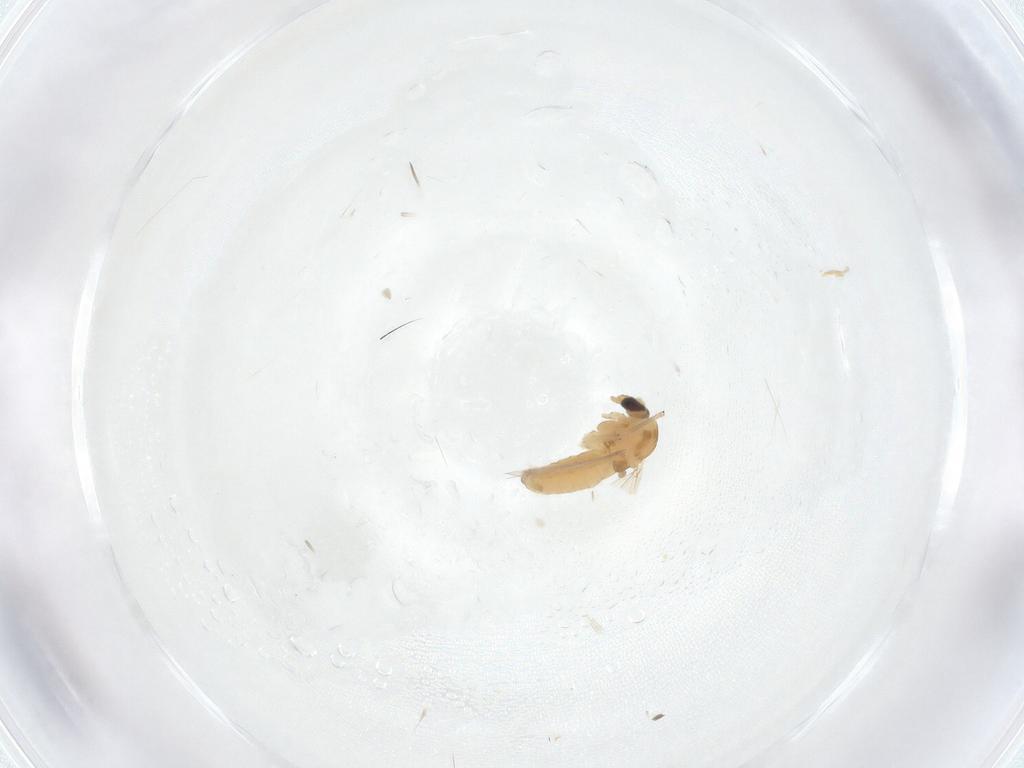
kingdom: Animalia
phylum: Arthropoda
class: Insecta
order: Diptera
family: Chironomidae
